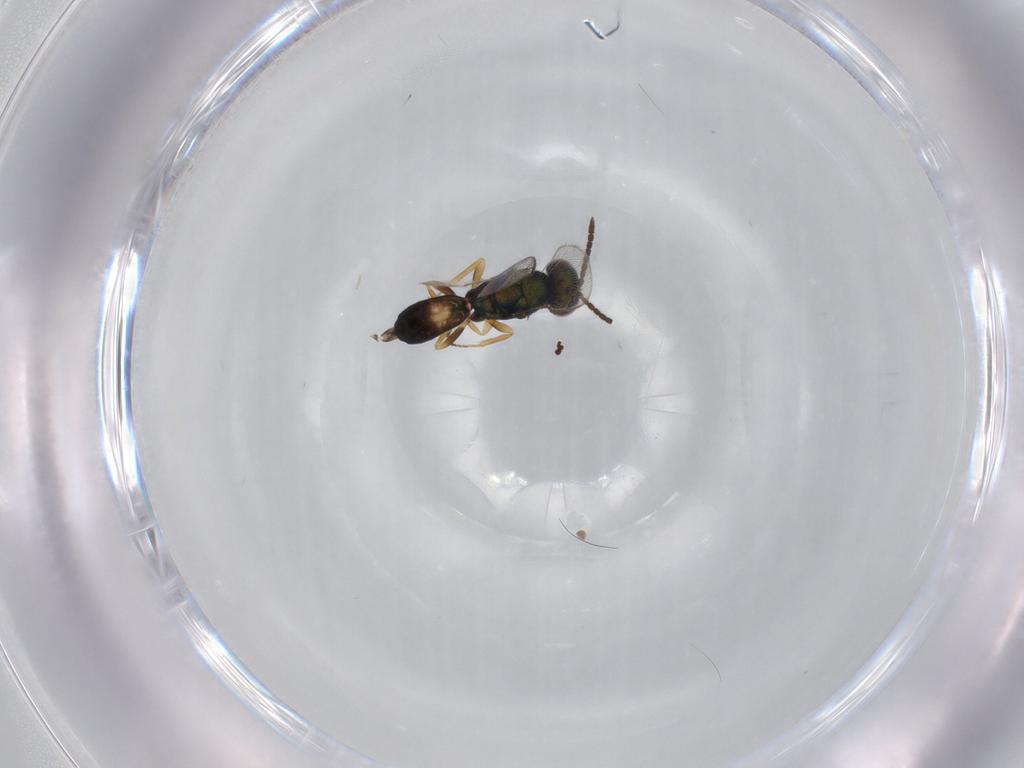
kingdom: Animalia
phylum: Arthropoda
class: Insecta
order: Hymenoptera
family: Pteromalidae
